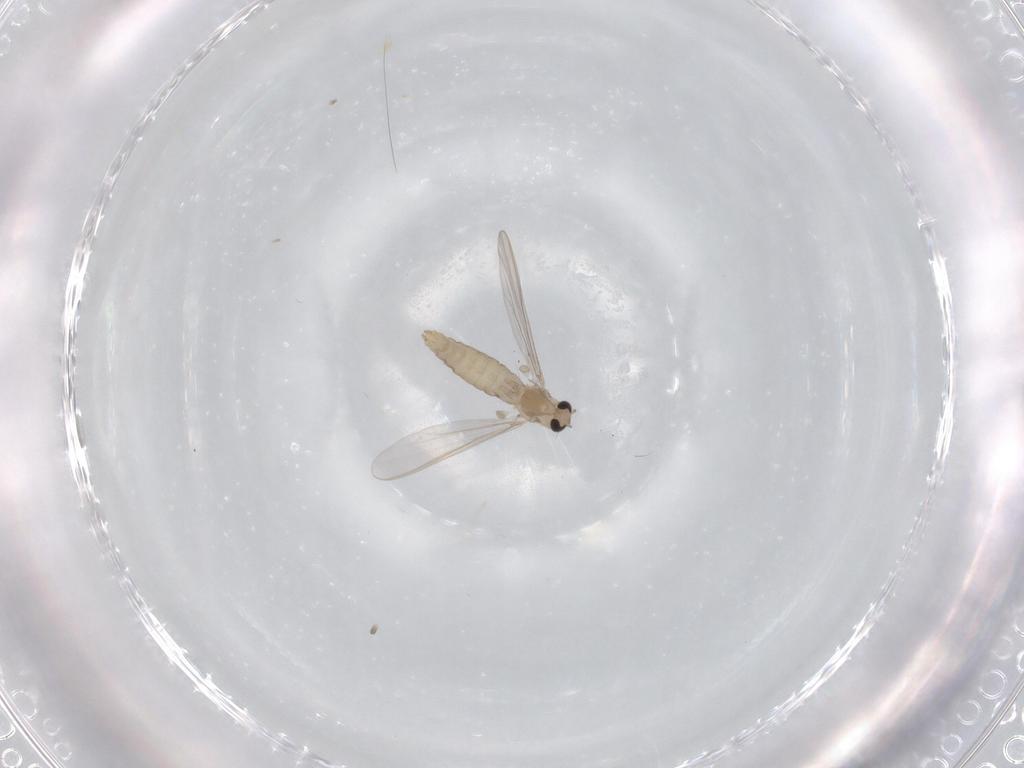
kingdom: Animalia
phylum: Arthropoda
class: Insecta
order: Diptera
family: Chironomidae
